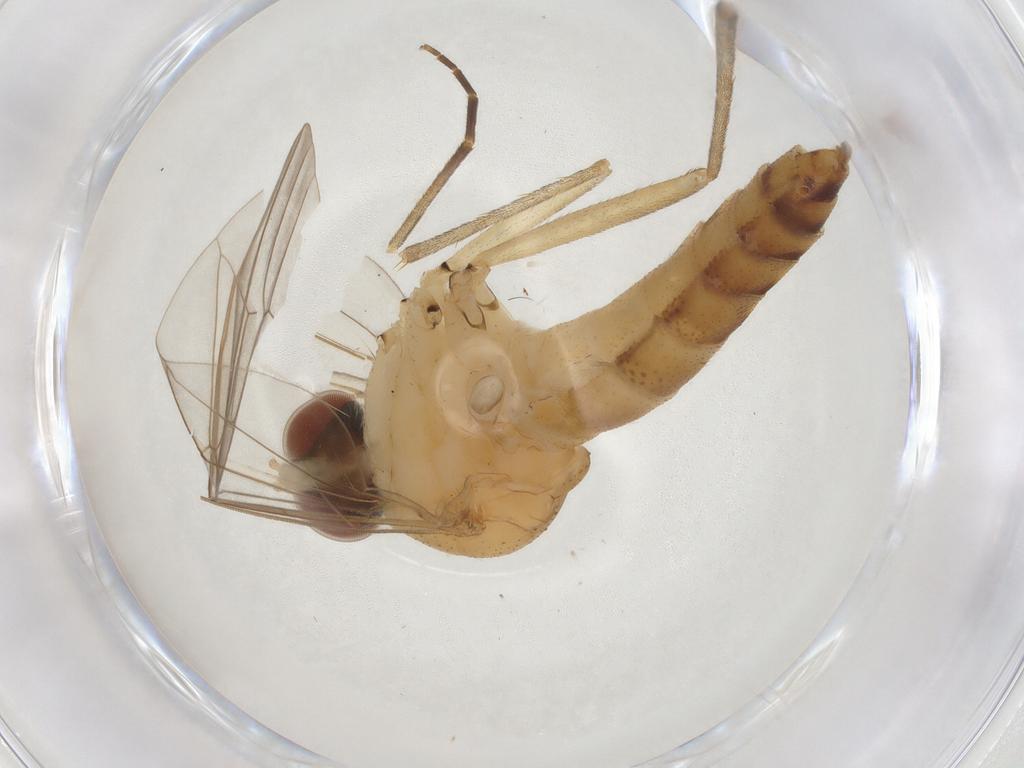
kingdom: Animalia
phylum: Arthropoda
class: Insecta
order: Diptera
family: Apsilocephalidae
